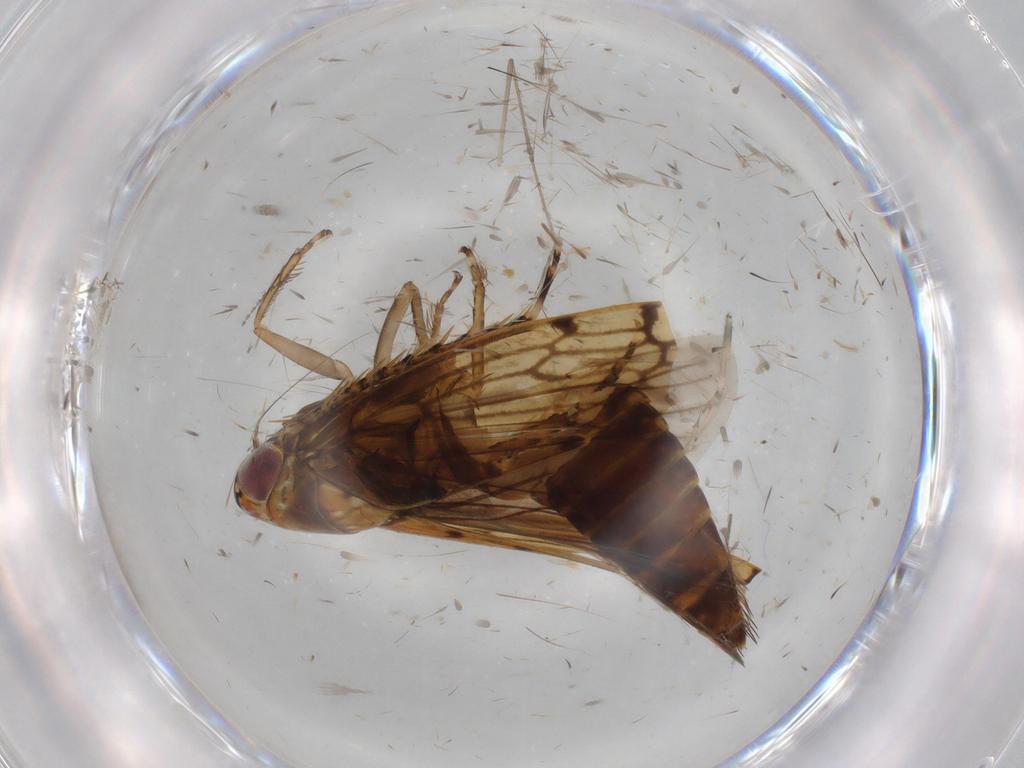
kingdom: Animalia
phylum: Arthropoda
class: Insecta
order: Hemiptera
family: Cicadellidae
